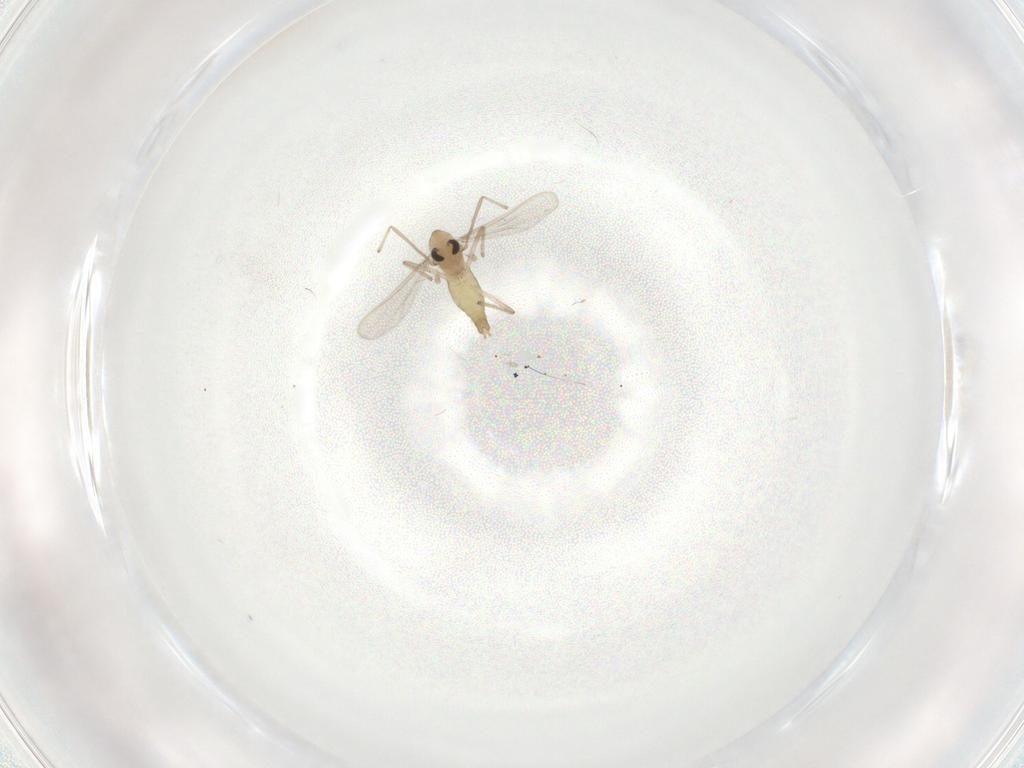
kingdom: Animalia
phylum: Arthropoda
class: Insecta
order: Diptera
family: Chironomidae
